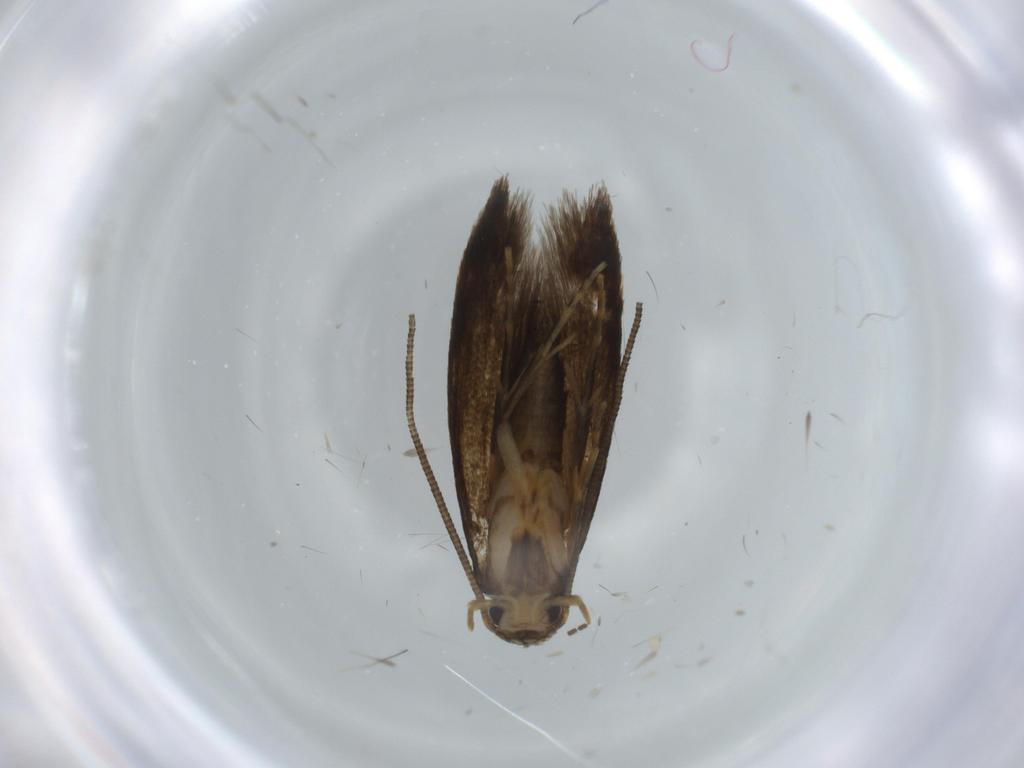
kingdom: Animalia
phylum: Arthropoda
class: Insecta
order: Lepidoptera
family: Tineidae
